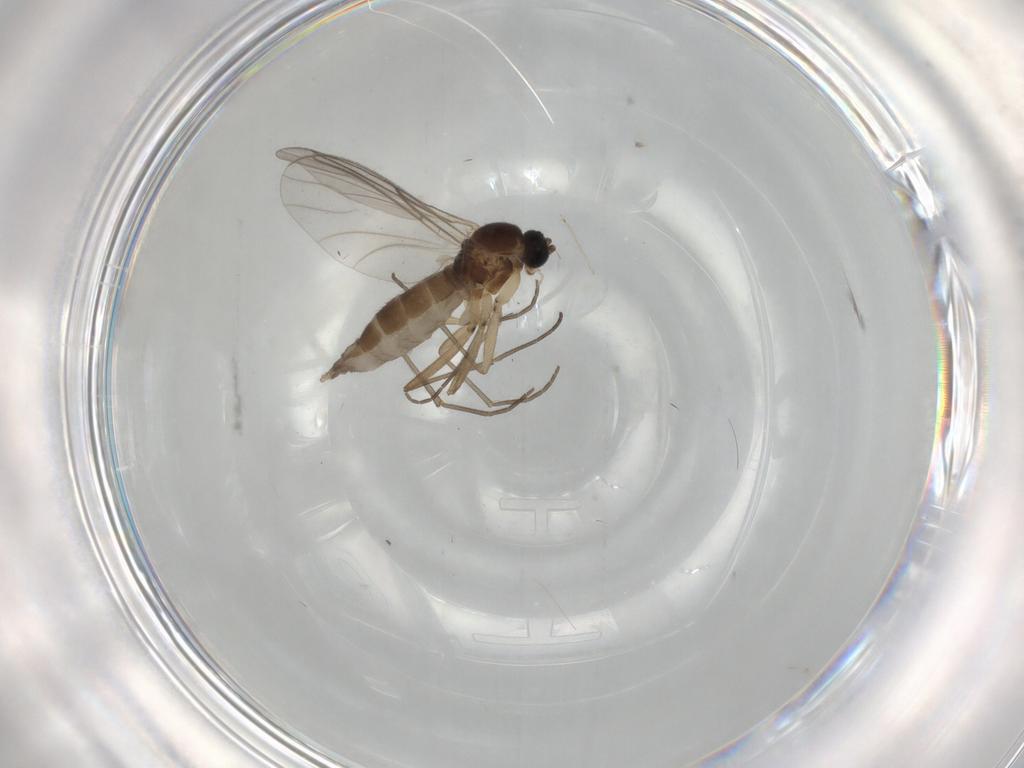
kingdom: Animalia
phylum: Arthropoda
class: Insecta
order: Diptera
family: Sciaridae
